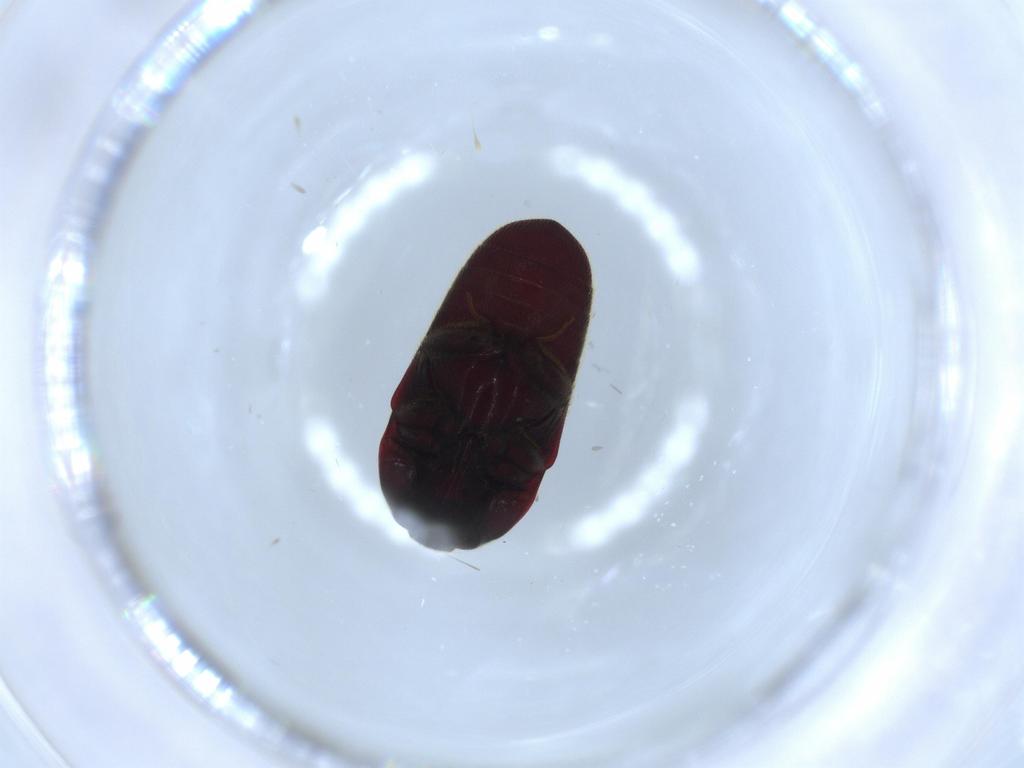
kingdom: Animalia
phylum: Arthropoda
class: Insecta
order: Coleoptera
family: Throscidae
